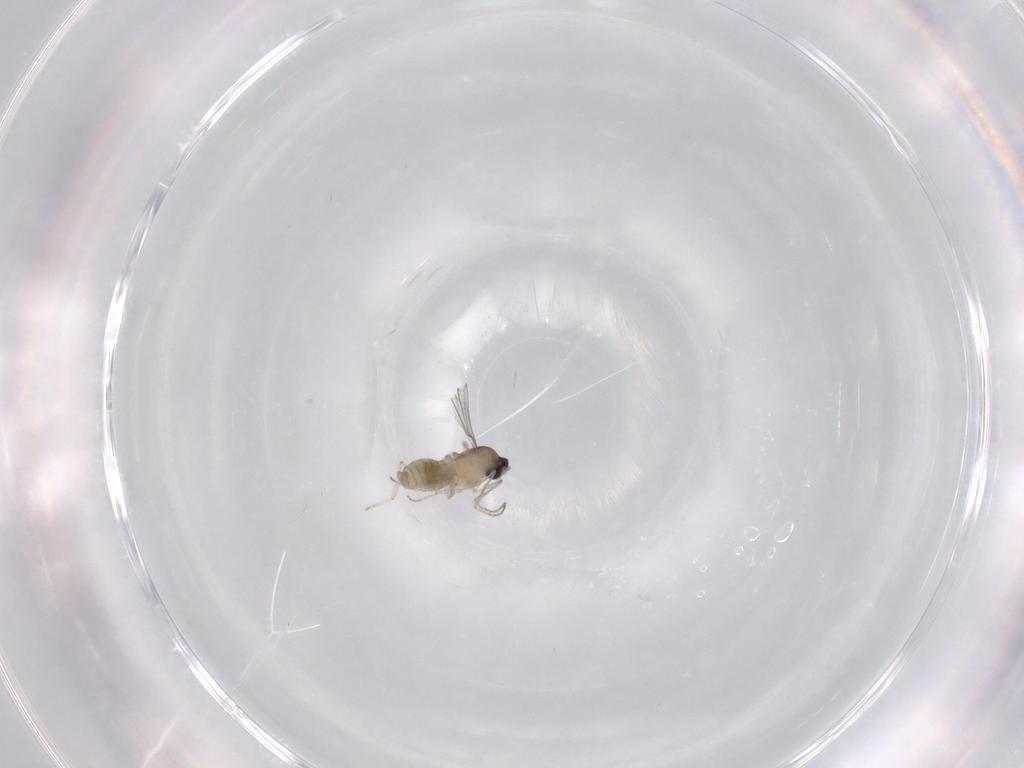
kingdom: Animalia
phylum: Arthropoda
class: Insecta
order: Diptera
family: Cecidomyiidae
